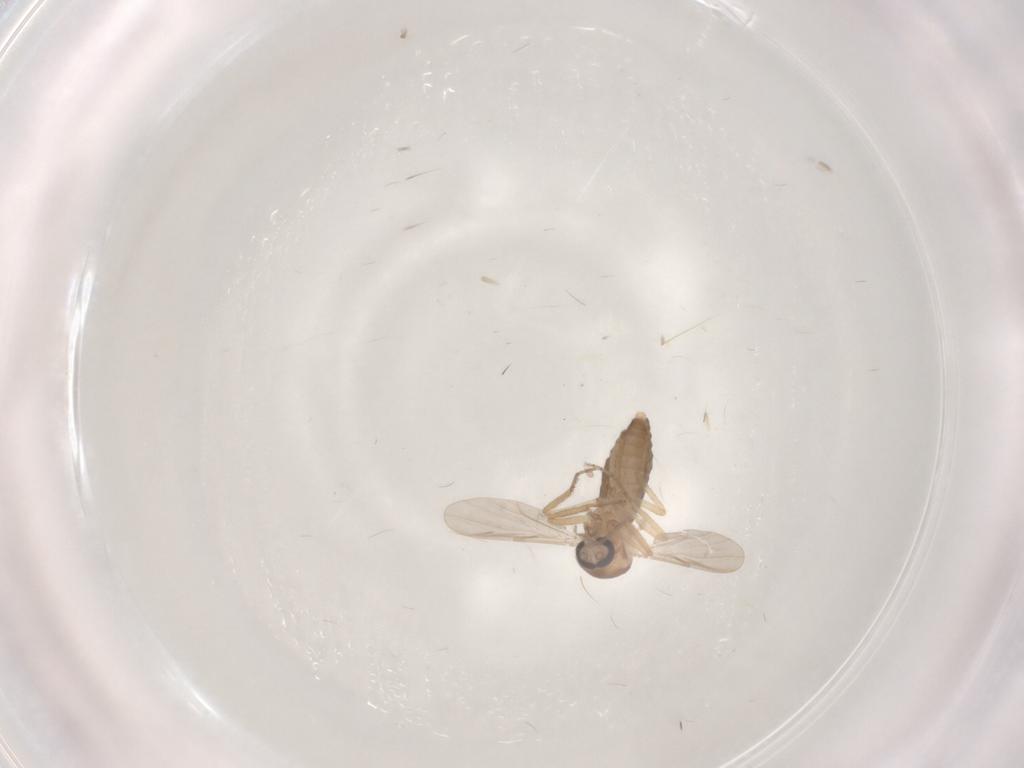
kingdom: Animalia
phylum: Arthropoda
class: Insecta
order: Diptera
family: Ceratopogonidae
